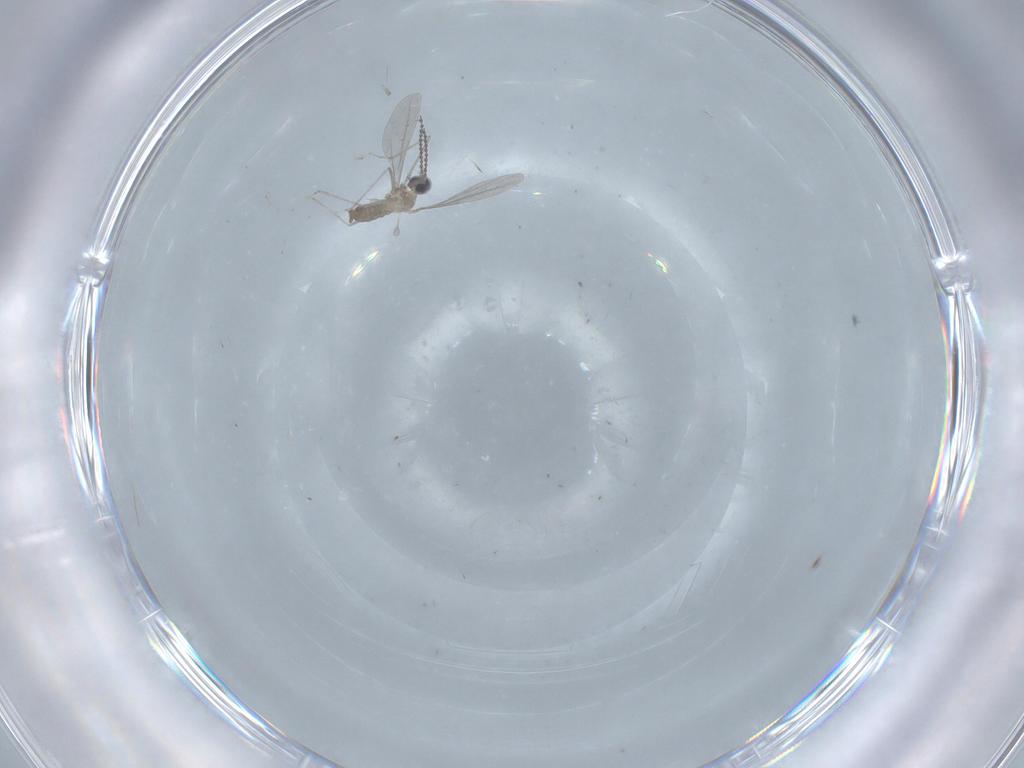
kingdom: Animalia
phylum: Arthropoda
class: Insecta
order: Diptera
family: Cecidomyiidae
